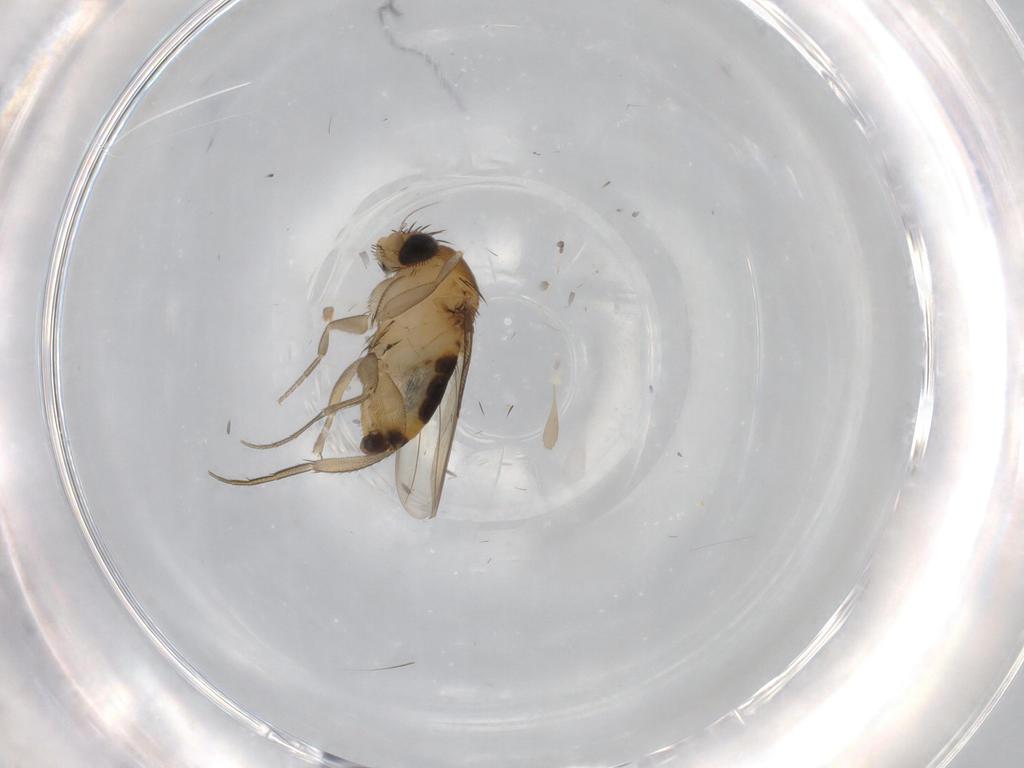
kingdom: Animalia
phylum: Arthropoda
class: Insecta
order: Diptera
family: Phoridae
